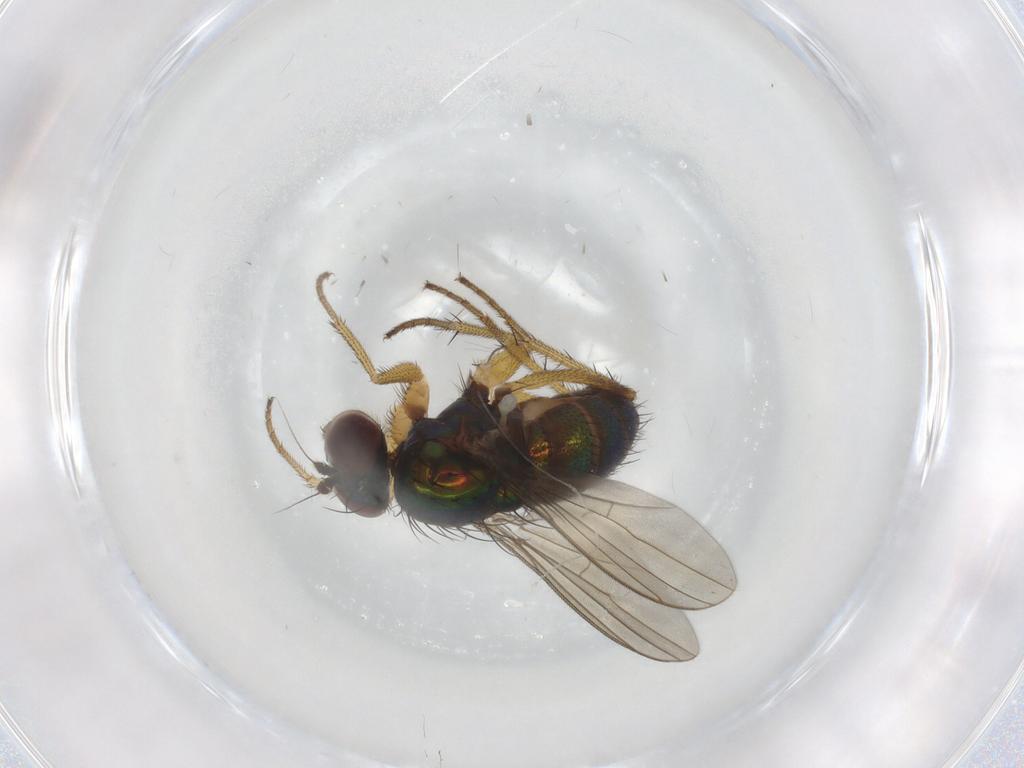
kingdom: Animalia
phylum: Arthropoda
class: Insecta
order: Diptera
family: Dolichopodidae
